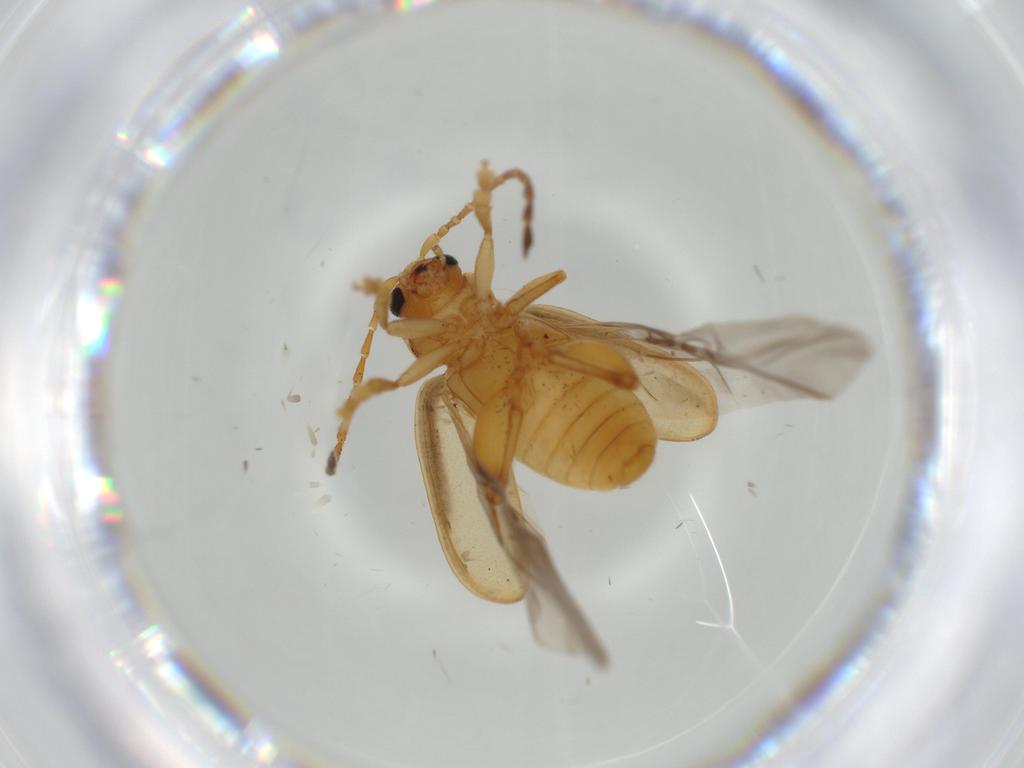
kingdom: Animalia
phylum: Arthropoda
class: Insecta
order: Coleoptera
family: Chrysomelidae
